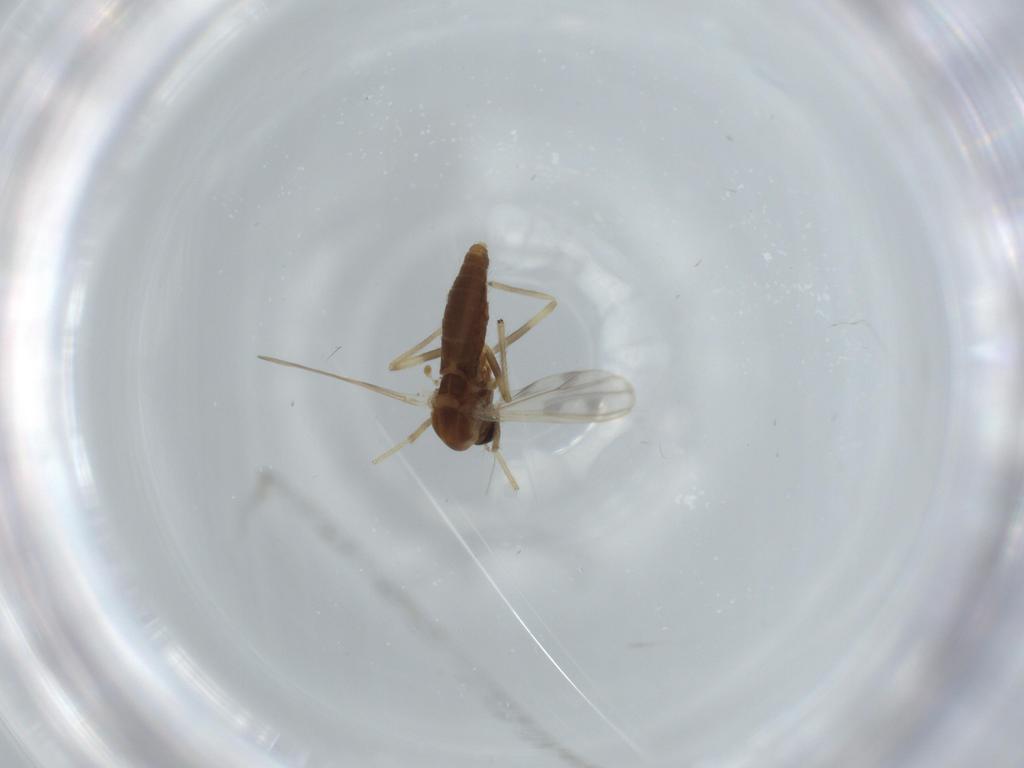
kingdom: Animalia
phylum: Arthropoda
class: Insecta
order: Diptera
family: Chironomidae
